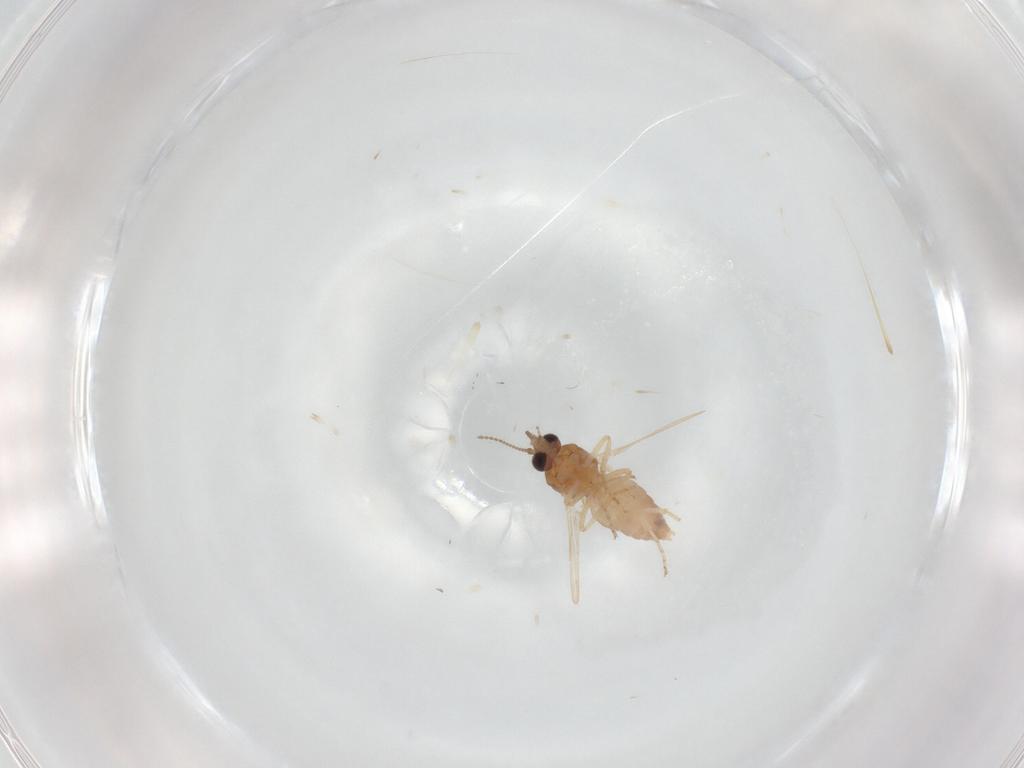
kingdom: Animalia
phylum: Arthropoda
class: Insecta
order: Diptera
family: Ceratopogonidae
